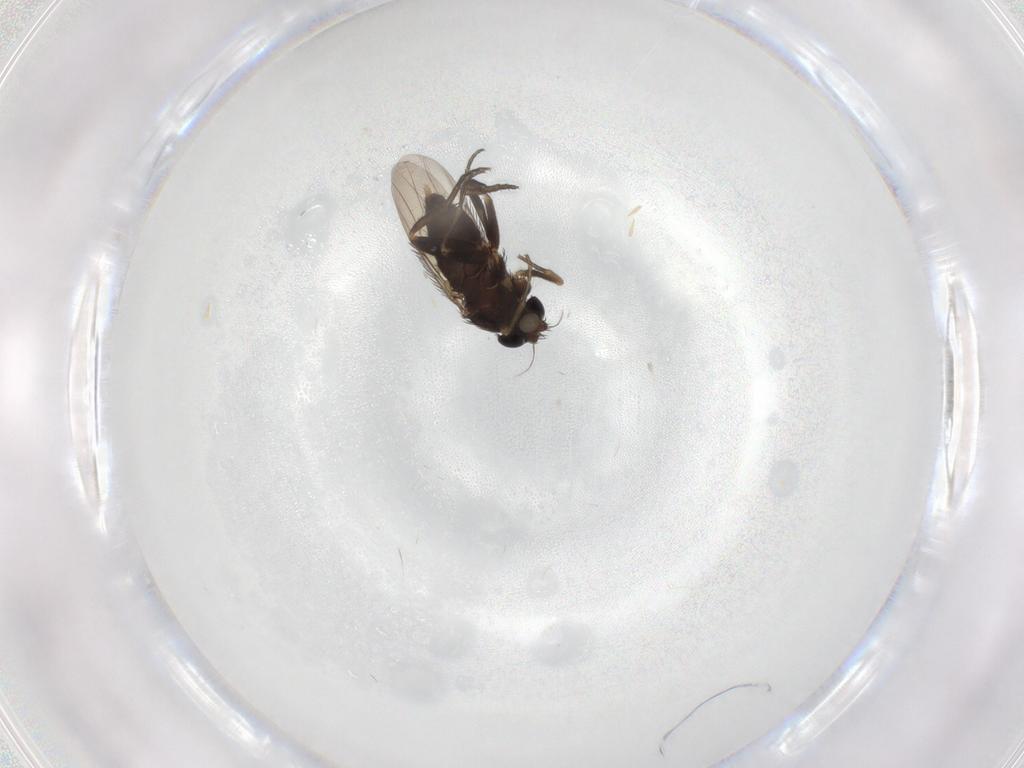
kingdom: Animalia
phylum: Arthropoda
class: Insecta
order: Diptera
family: Phoridae
